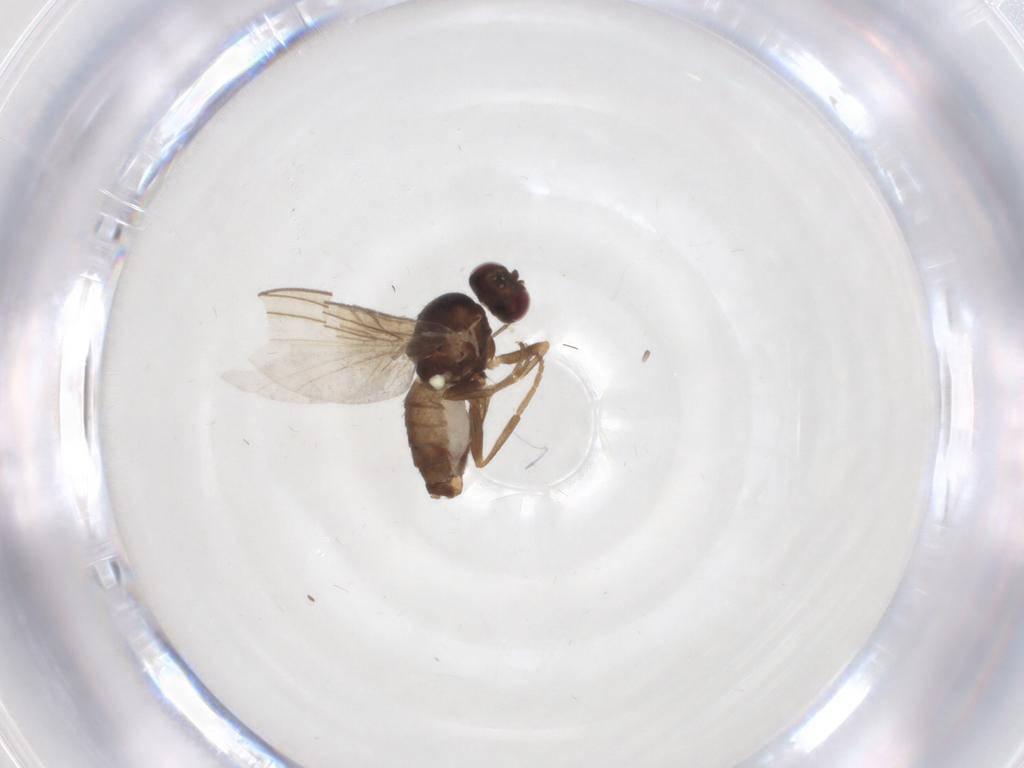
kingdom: Animalia
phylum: Arthropoda
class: Insecta
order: Diptera
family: Agromyzidae
